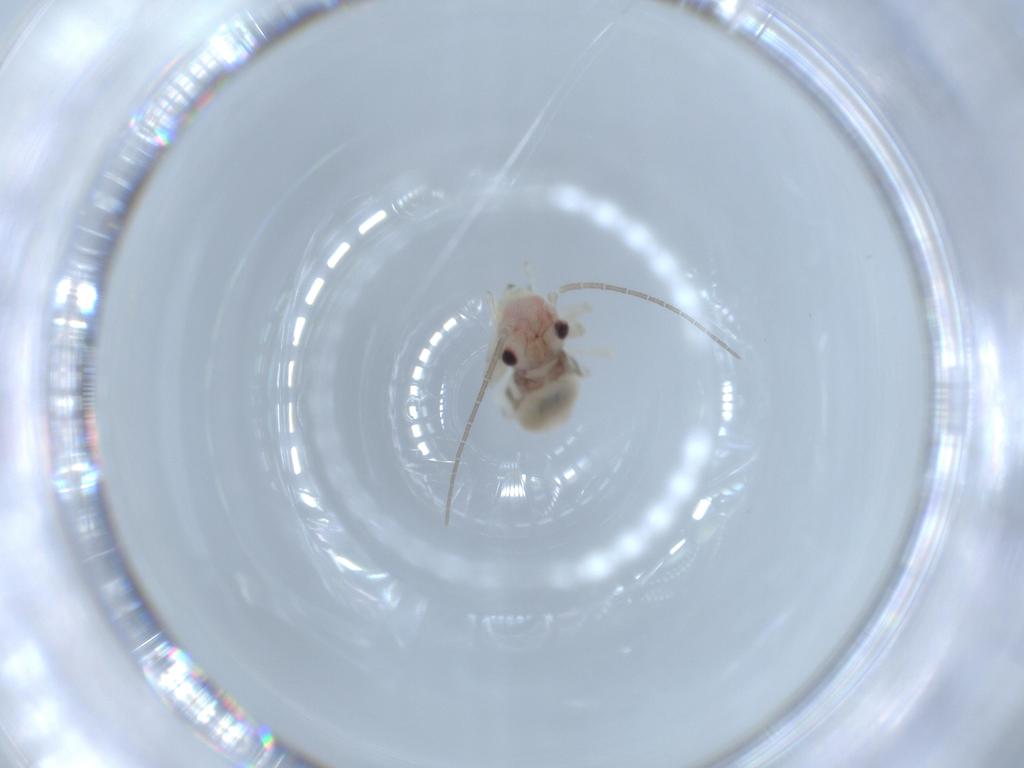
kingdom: Animalia
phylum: Arthropoda
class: Insecta
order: Psocodea
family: Amphipsocidae
